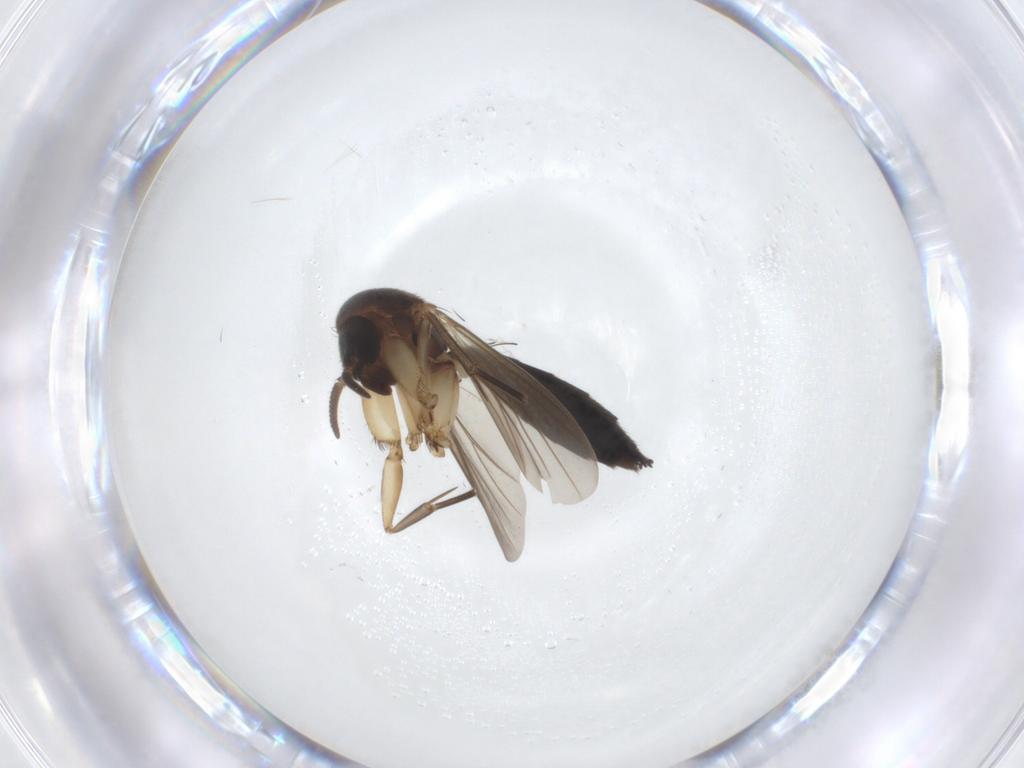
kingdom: Animalia
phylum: Arthropoda
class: Insecta
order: Diptera
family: Mycetophilidae
